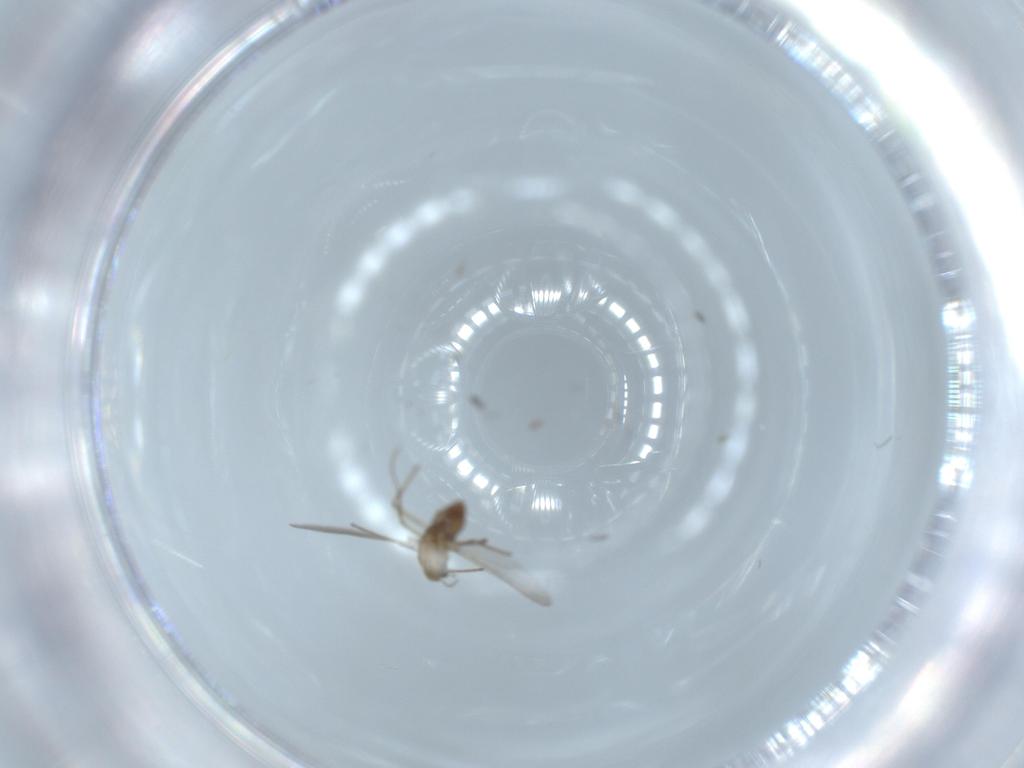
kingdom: Animalia
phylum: Arthropoda
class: Insecta
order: Diptera
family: Chironomidae
